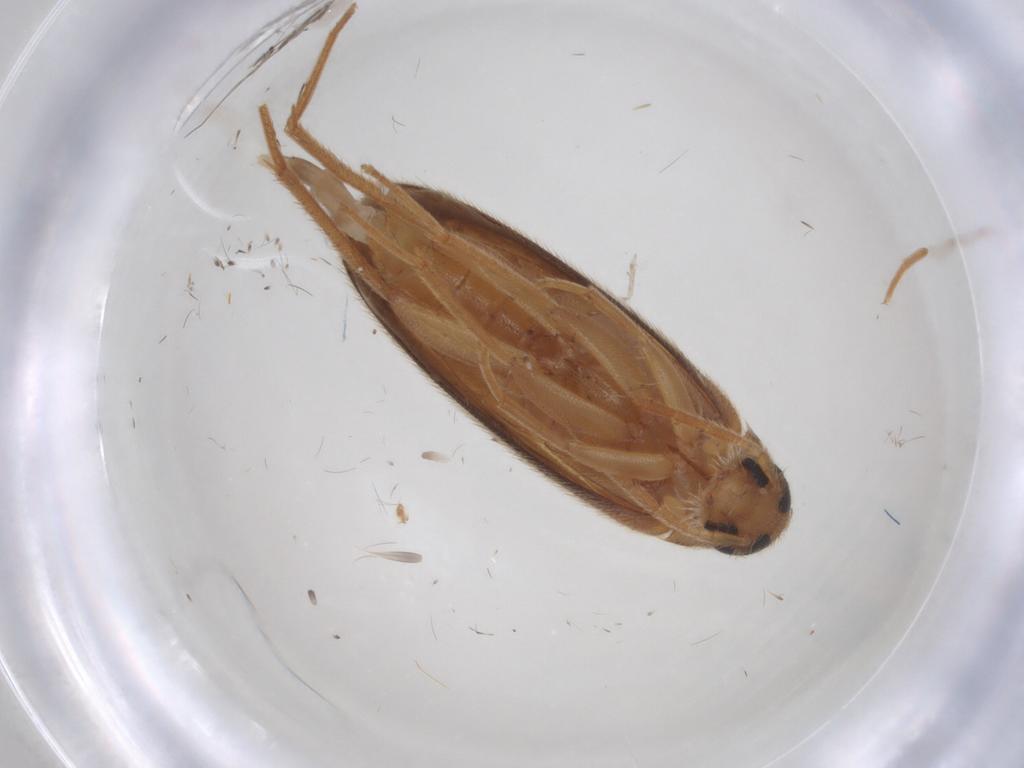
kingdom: Animalia
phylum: Arthropoda
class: Insecta
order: Coleoptera
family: Scraptiidae
